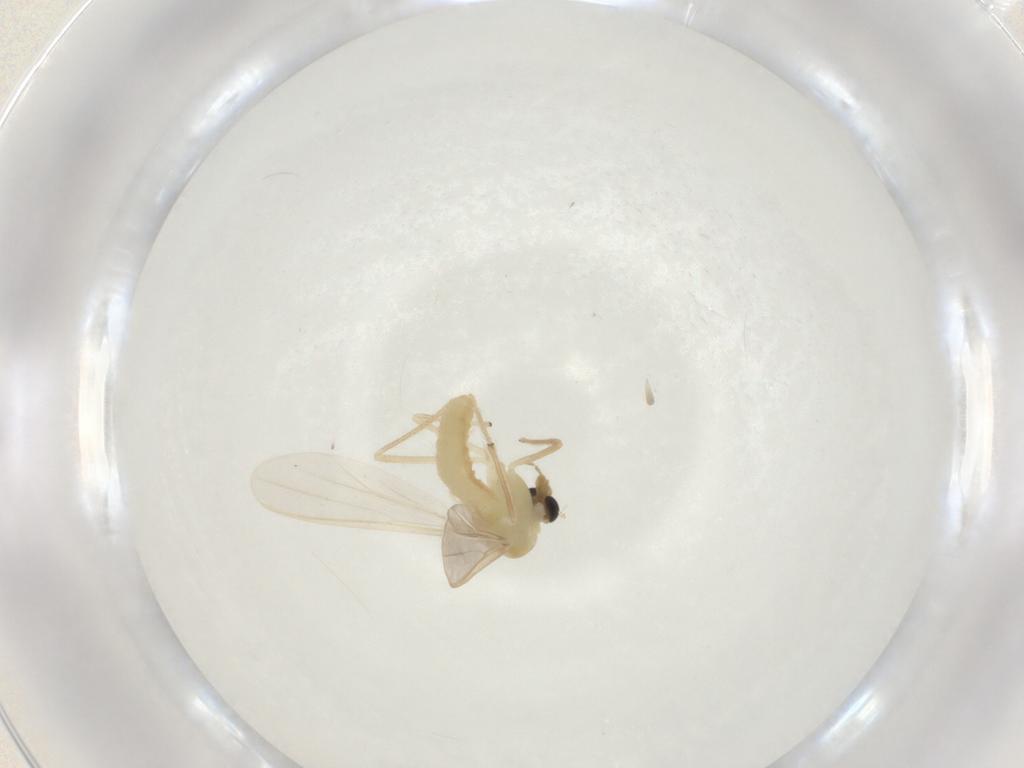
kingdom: Animalia
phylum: Arthropoda
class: Insecta
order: Diptera
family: Chironomidae
